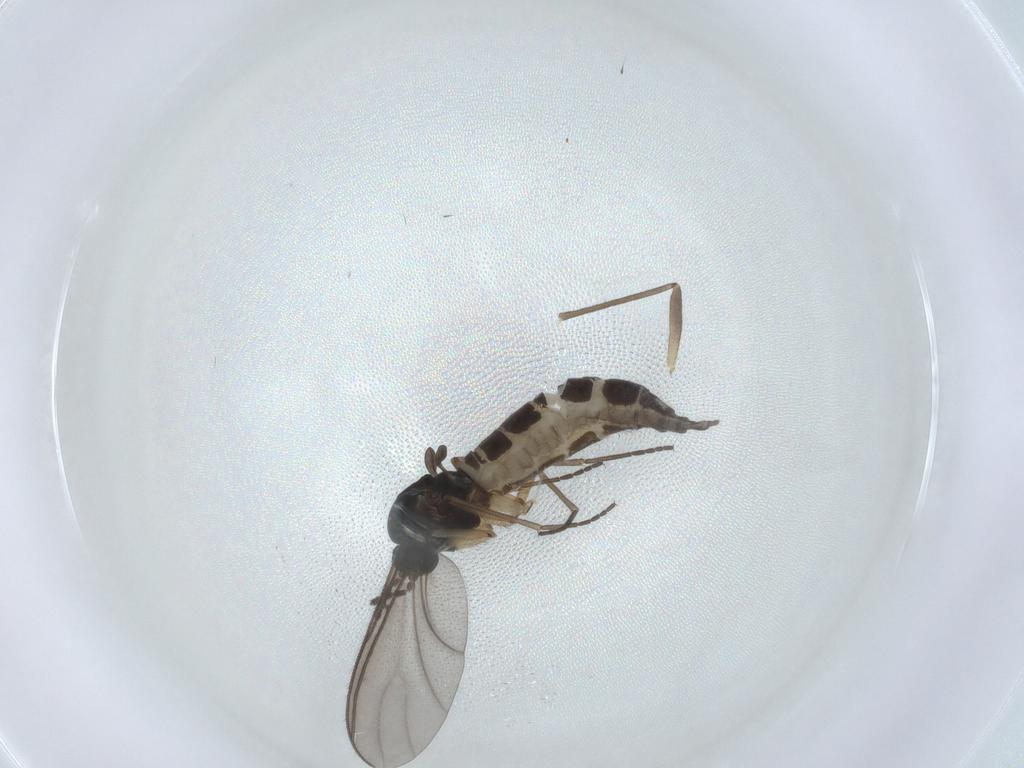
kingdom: Animalia
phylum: Arthropoda
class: Insecta
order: Diptera
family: Sciaridae
